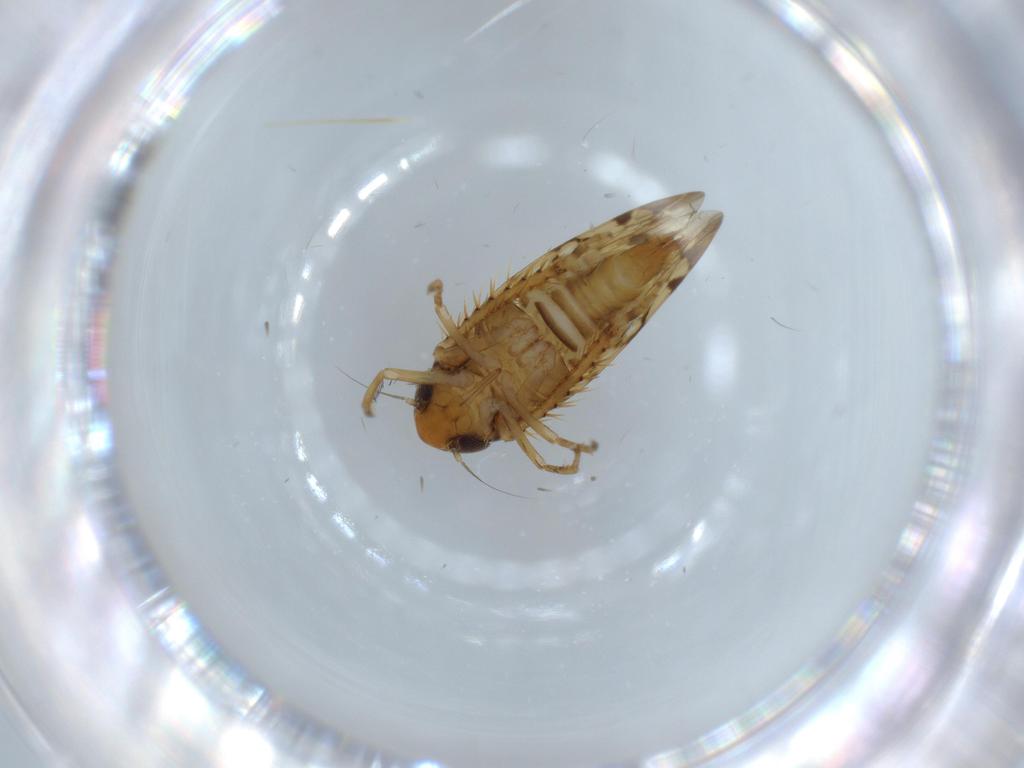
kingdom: Animalia
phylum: Arthropoda
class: Insecta
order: Hemiptera
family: Cicadellidae
